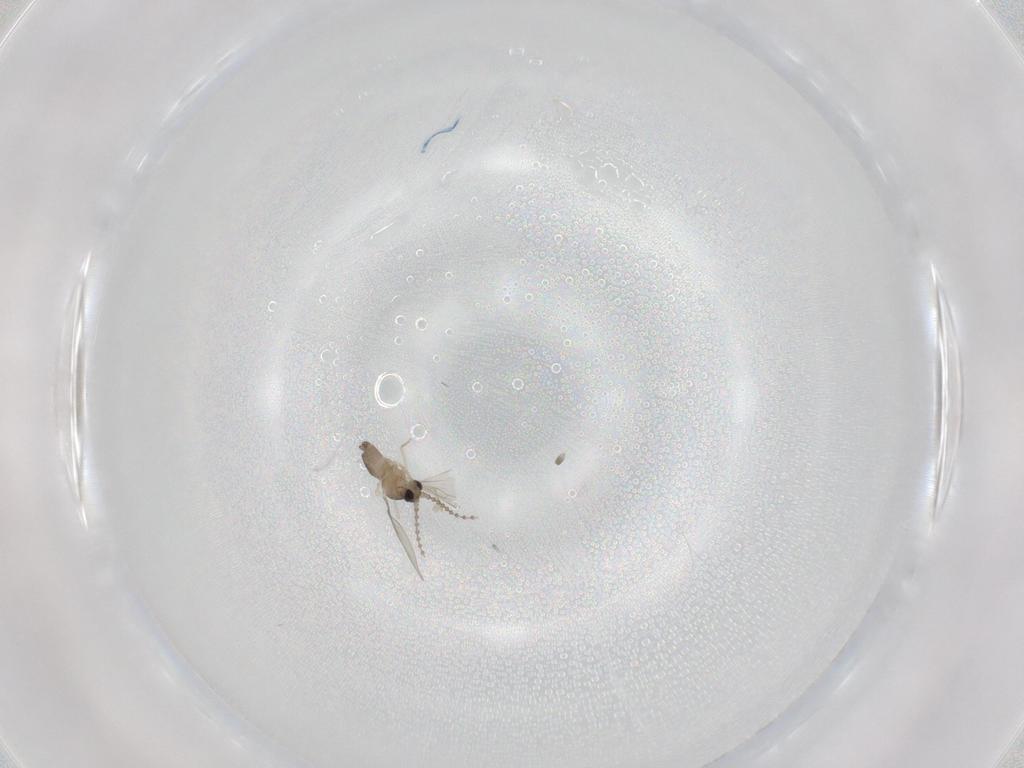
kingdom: Animalia
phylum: Arthropoda
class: Insecta
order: Diptera
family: Cecidomyiidae
